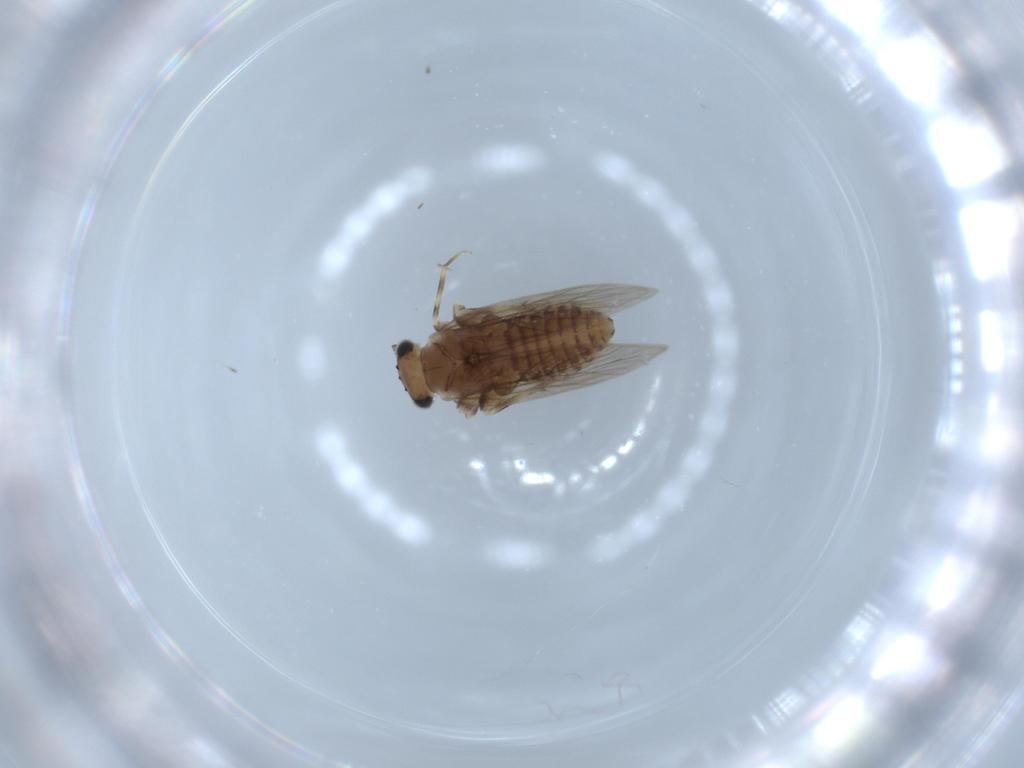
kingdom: Animalia
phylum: Arthropoda
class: Insecta
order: Psocodea
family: Lepidopsocidae
